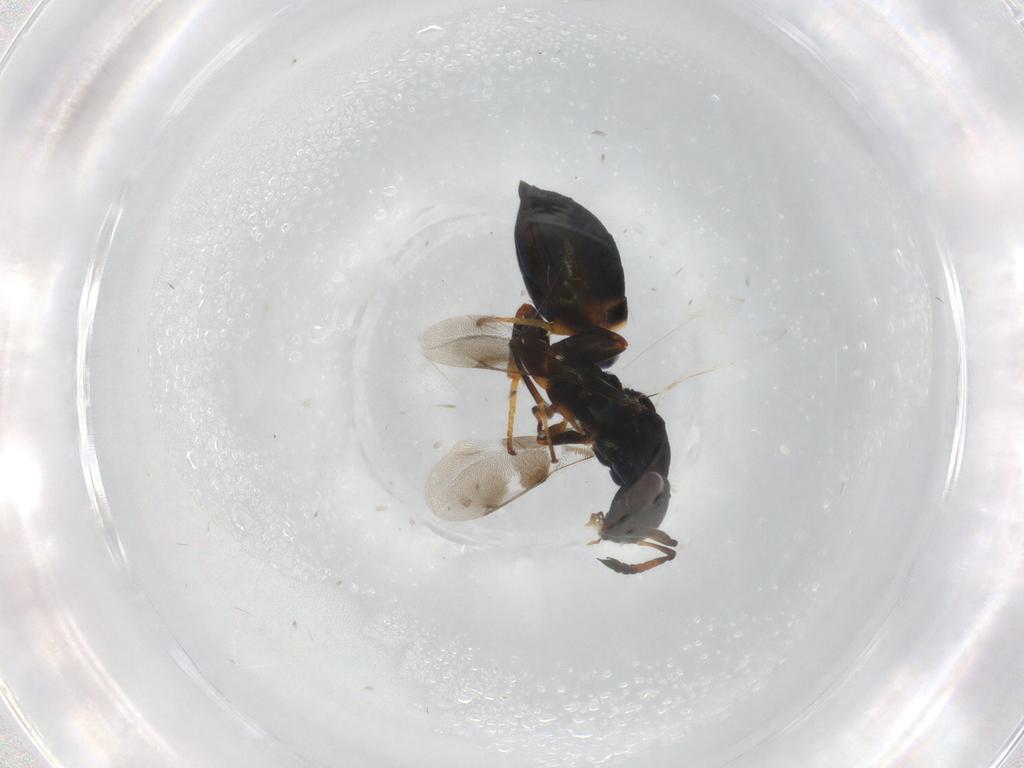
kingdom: Animalia
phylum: Arthropoda
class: Insecta
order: Hymenoptera
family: Cleonyminae
